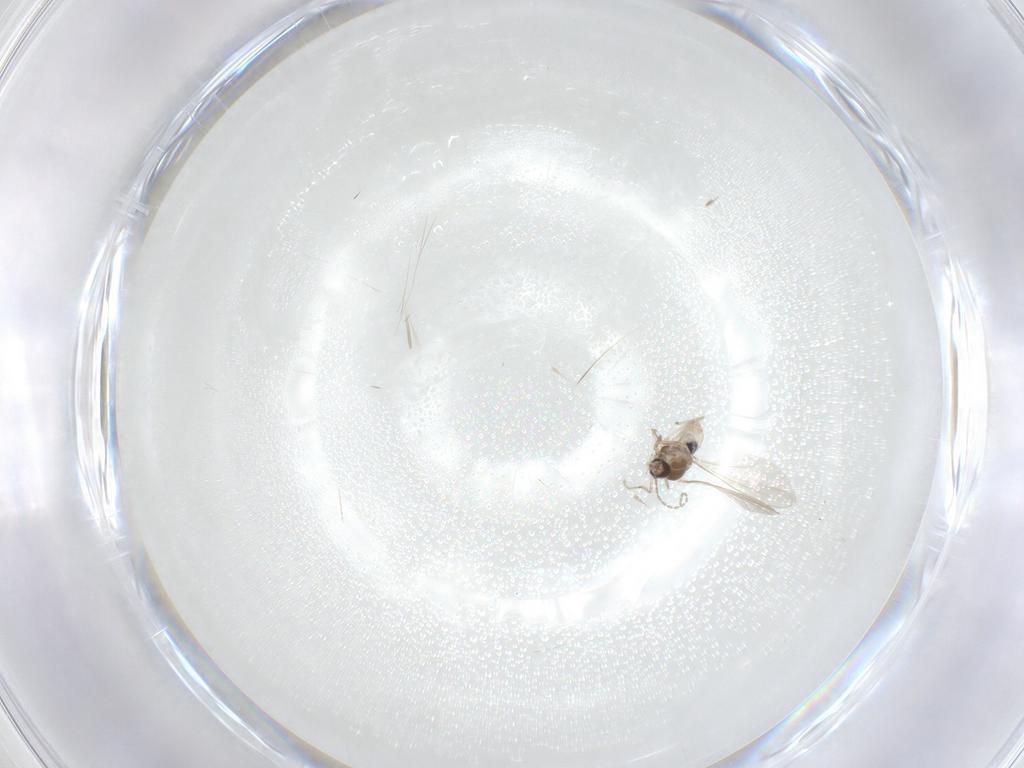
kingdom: Animalia
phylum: Arthropoda
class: Insecta
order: Diptera
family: Cecidomyiidae
